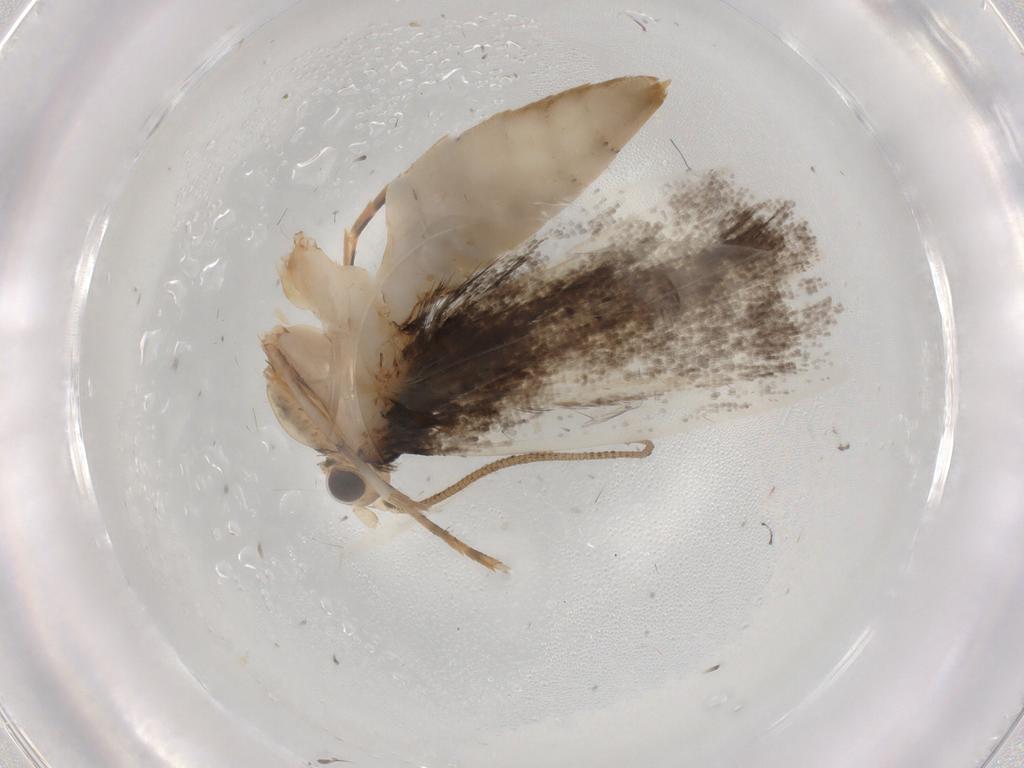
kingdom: Animalia
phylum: Arthropoda
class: Insecta
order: Lepidoptera
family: Tineidae
